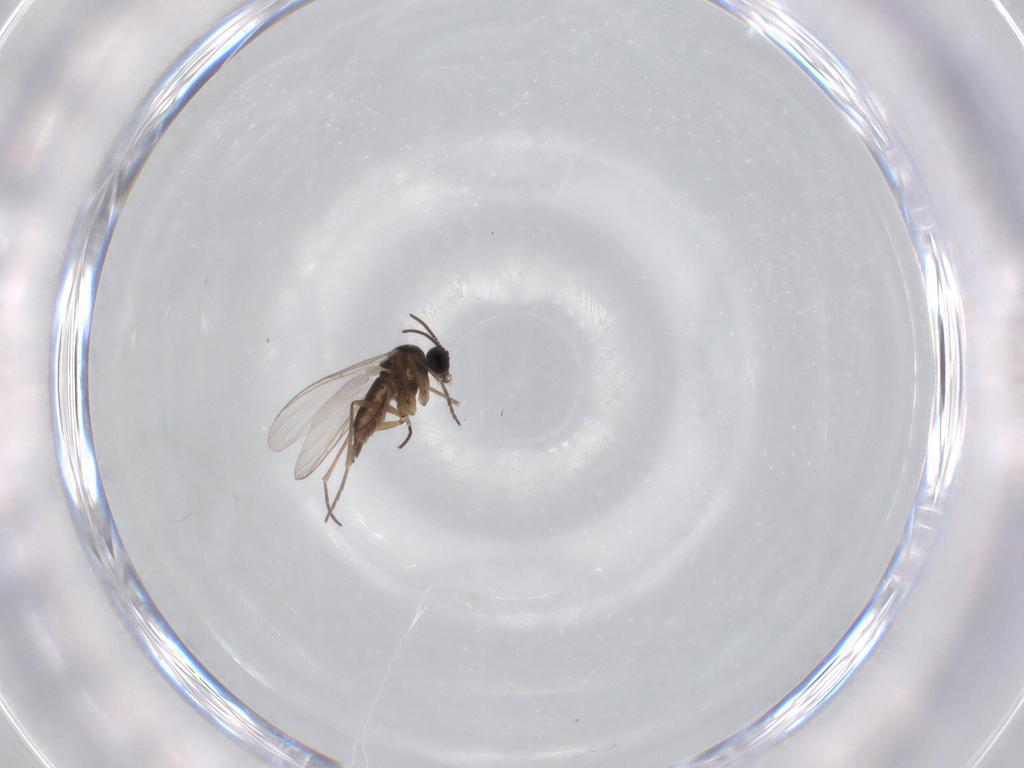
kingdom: Animalia
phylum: Arthropoda
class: Insecta
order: Diptera
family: Sciaridae
